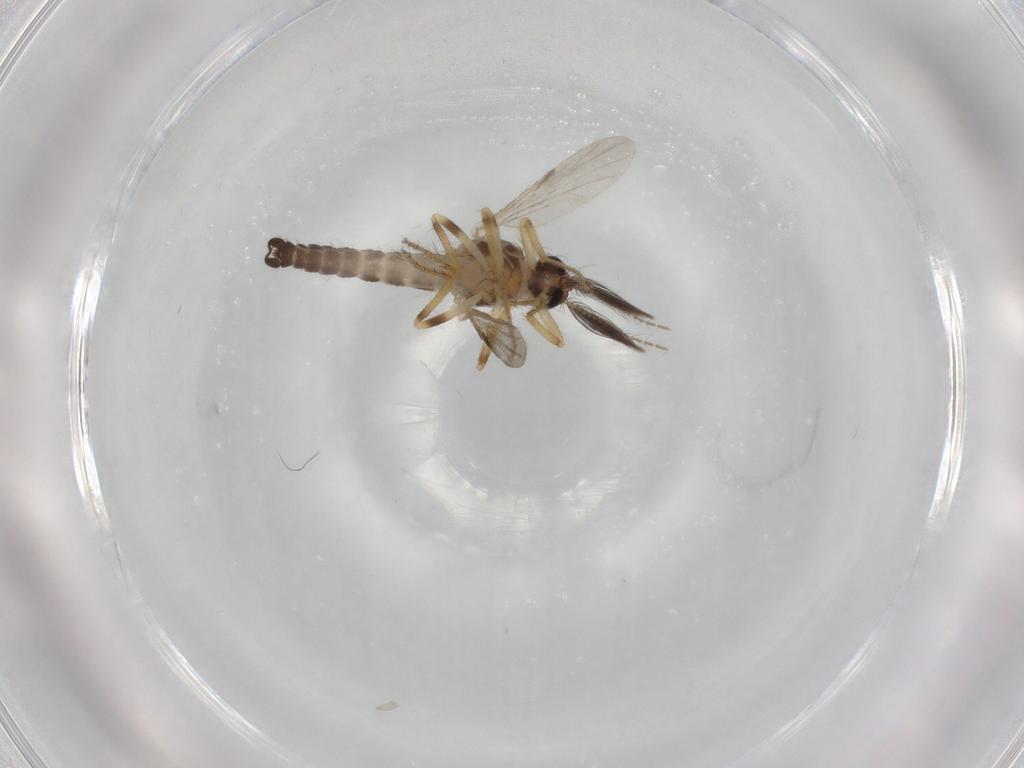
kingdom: Animalia
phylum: Arthropoda
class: Insecta
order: Diptera
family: Ceratopogonidae
